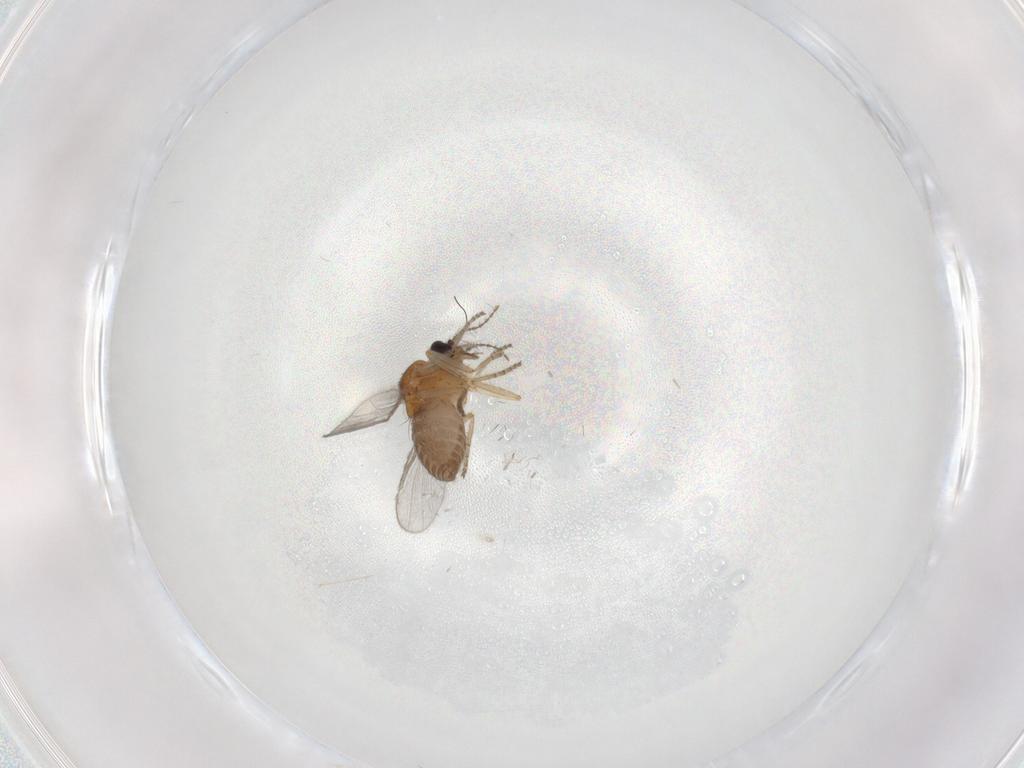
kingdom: Animalia
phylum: Arthropoda
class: Insecta
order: Diptera
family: Ceratopogonidae
